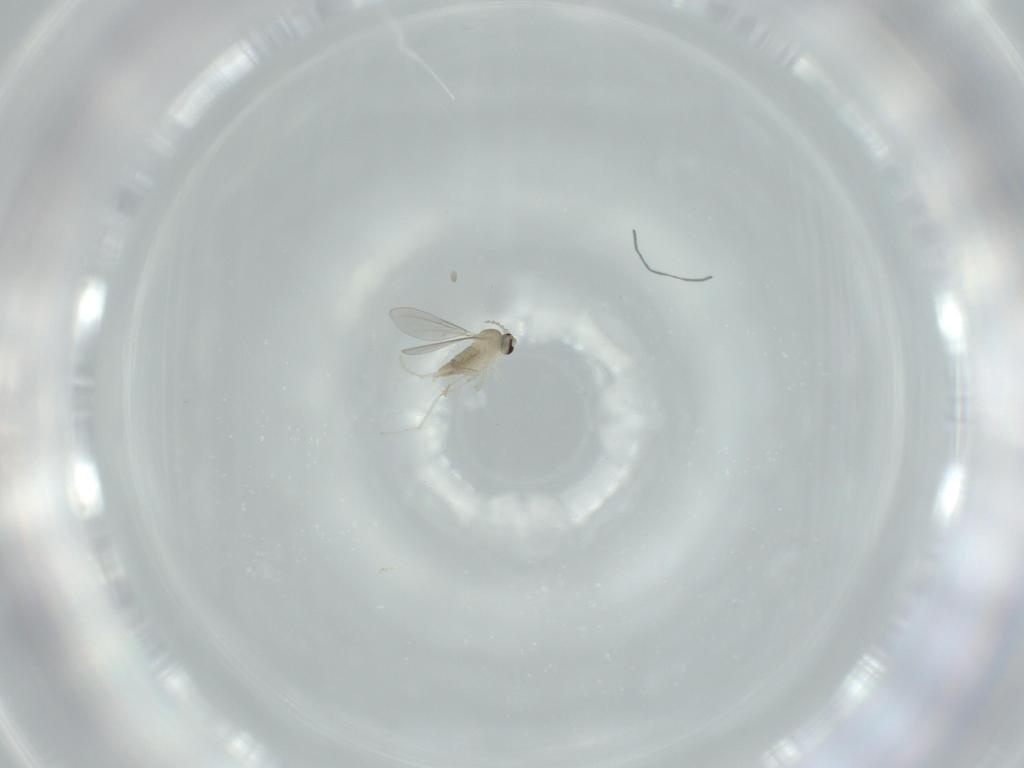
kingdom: Animalia
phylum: Arthropoda
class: Insecta
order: Diptera
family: Cecidomyiidae
